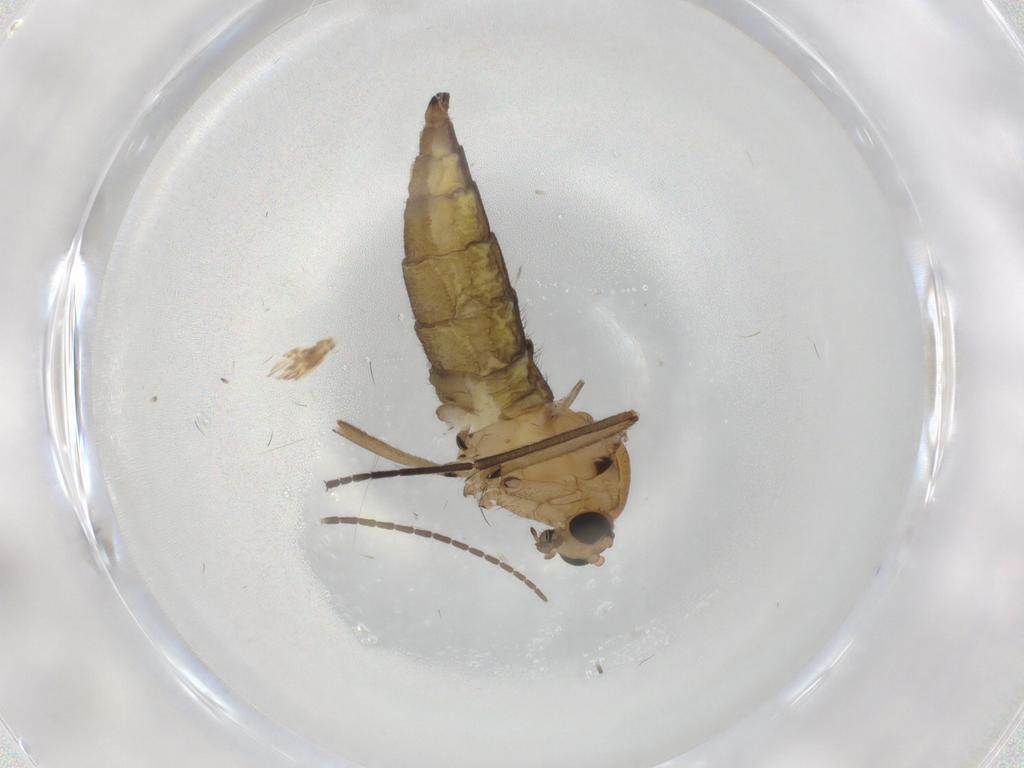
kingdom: Animalia
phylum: Arthropoda
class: Insecta
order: Diptera
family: Sciaridae
